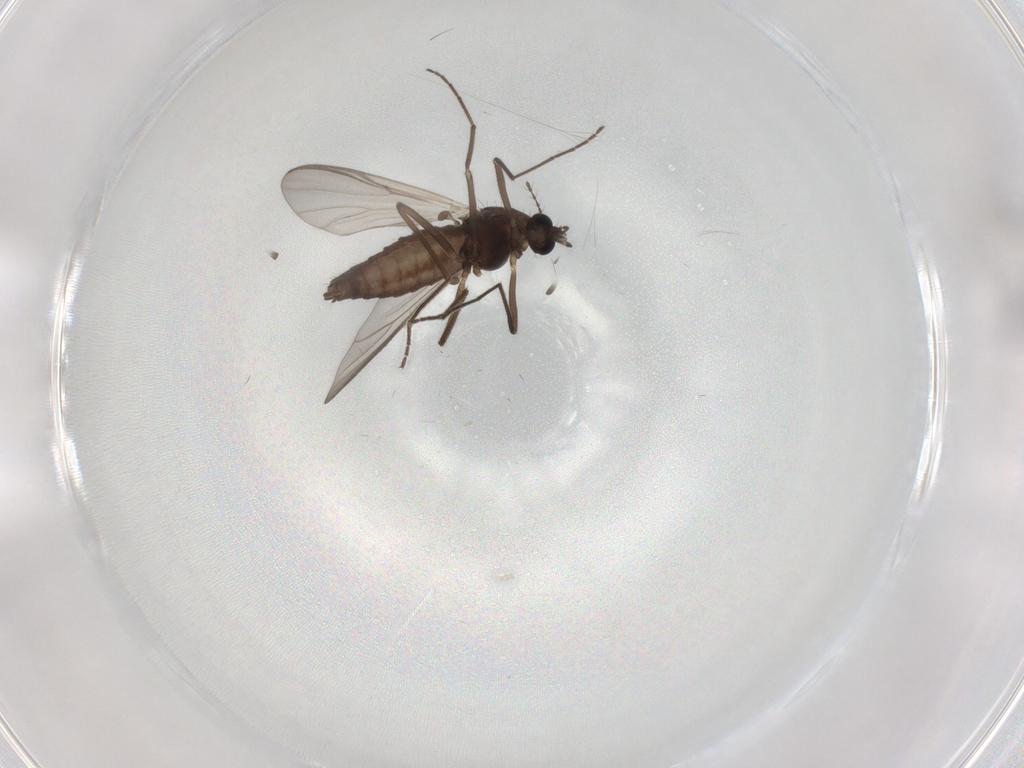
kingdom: Animalia
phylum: Arthropoda
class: Insecta
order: Diptera
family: Chironomidae
